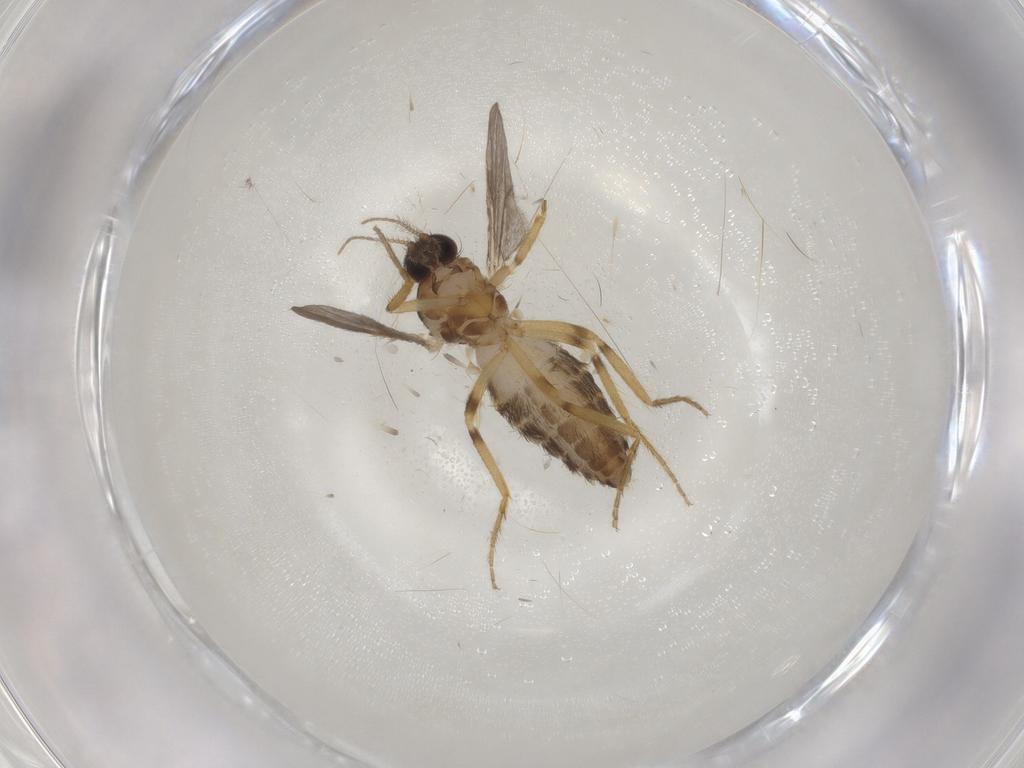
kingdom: Animalia
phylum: Arthropoda
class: Insecta
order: Diptera
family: Ceratopogonidae
